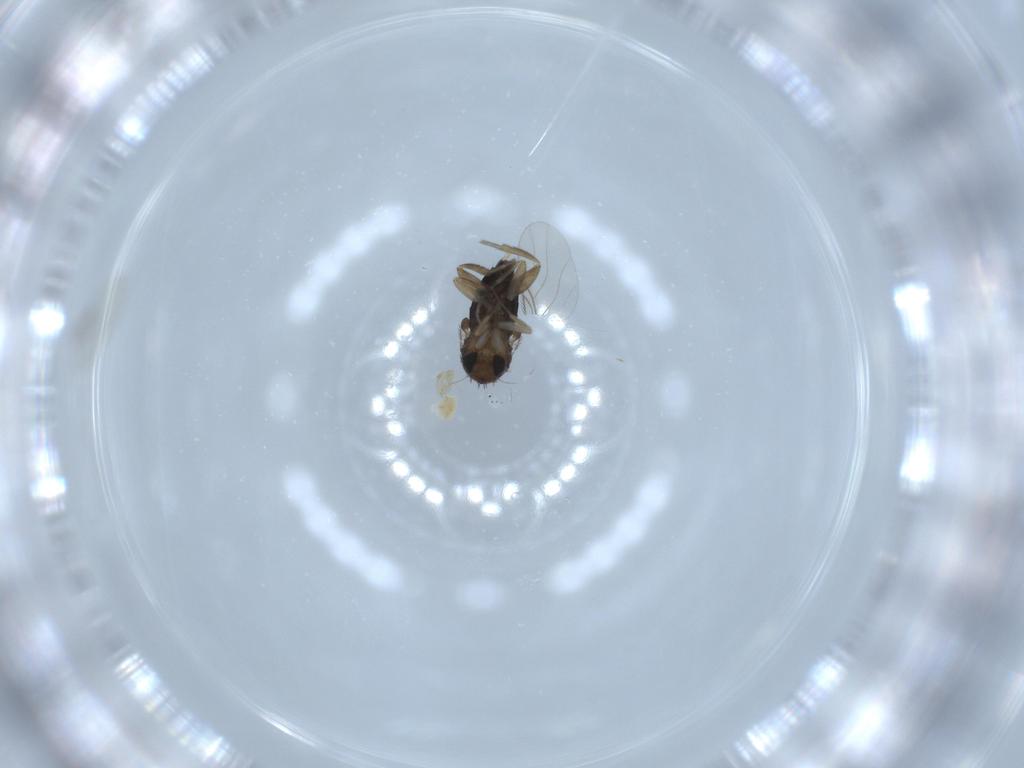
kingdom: Animalia
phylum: Arthropoda
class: Insecta
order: Diptera
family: Phoridae
